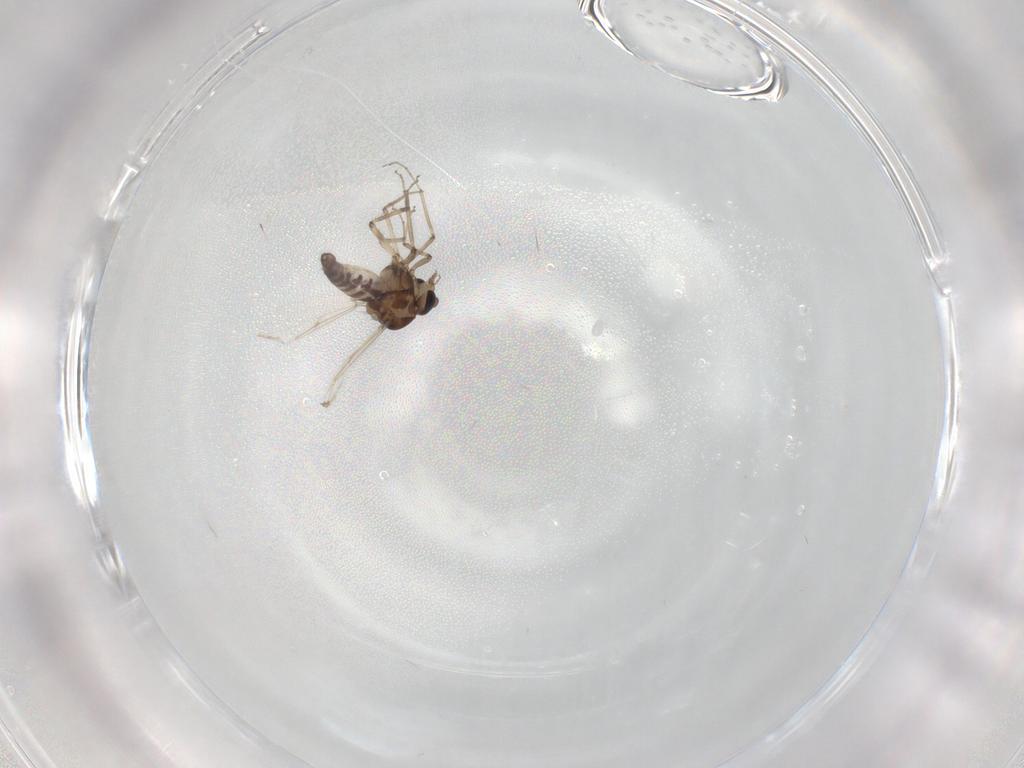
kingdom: Animalia
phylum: Arthropoda
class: Insecta
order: Diptera
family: Ceratopogonidae
